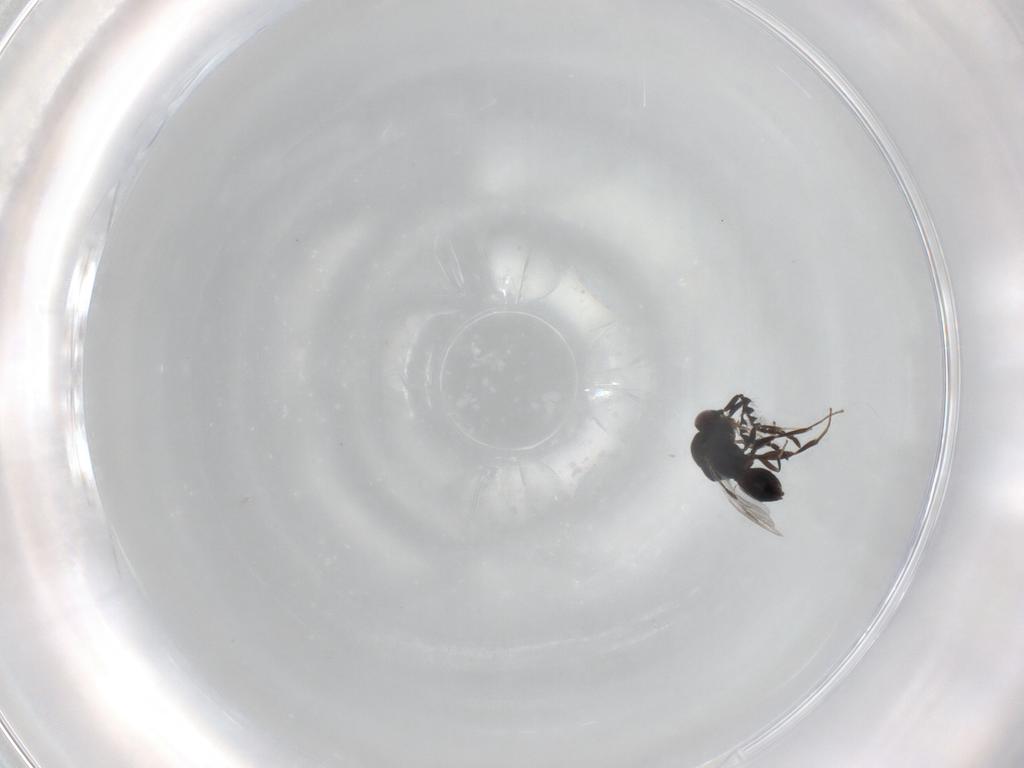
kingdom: Animalia
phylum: Arthropoda
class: Insecta
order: Hymenoptera
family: Megaspilidae
